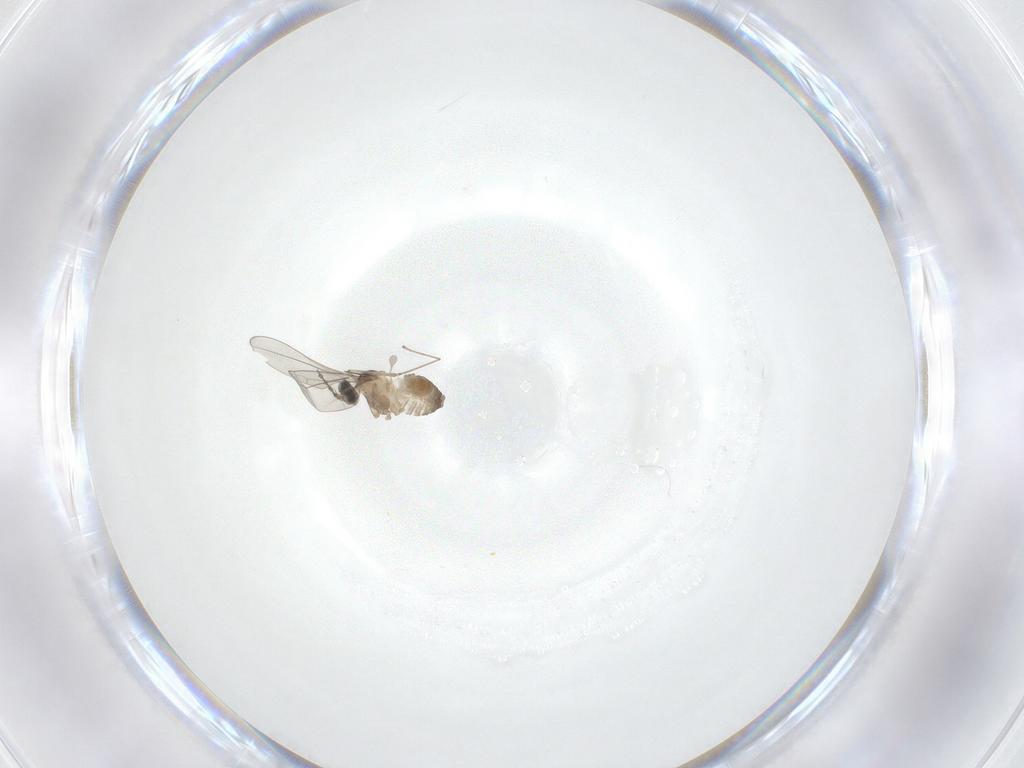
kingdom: Animalia
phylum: Arthropoda
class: Insecta
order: Diptera
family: Cecidomyiidae
